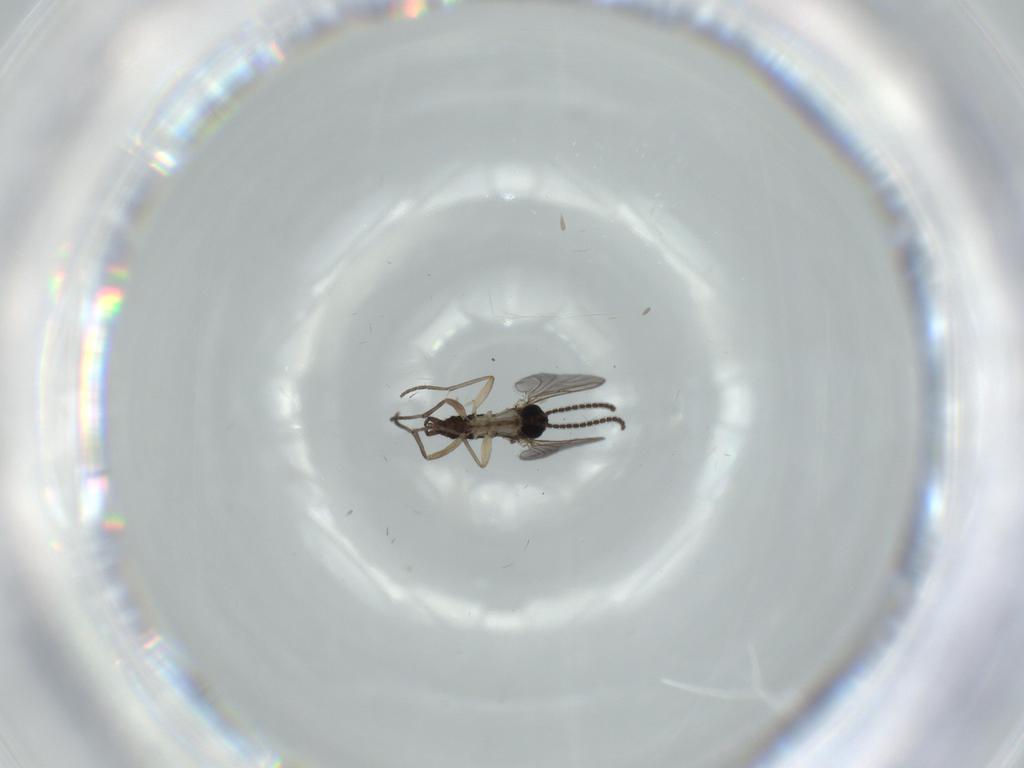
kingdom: Animalia
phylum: Arthropoda
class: Insecta
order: Diptera
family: Sciaridae
